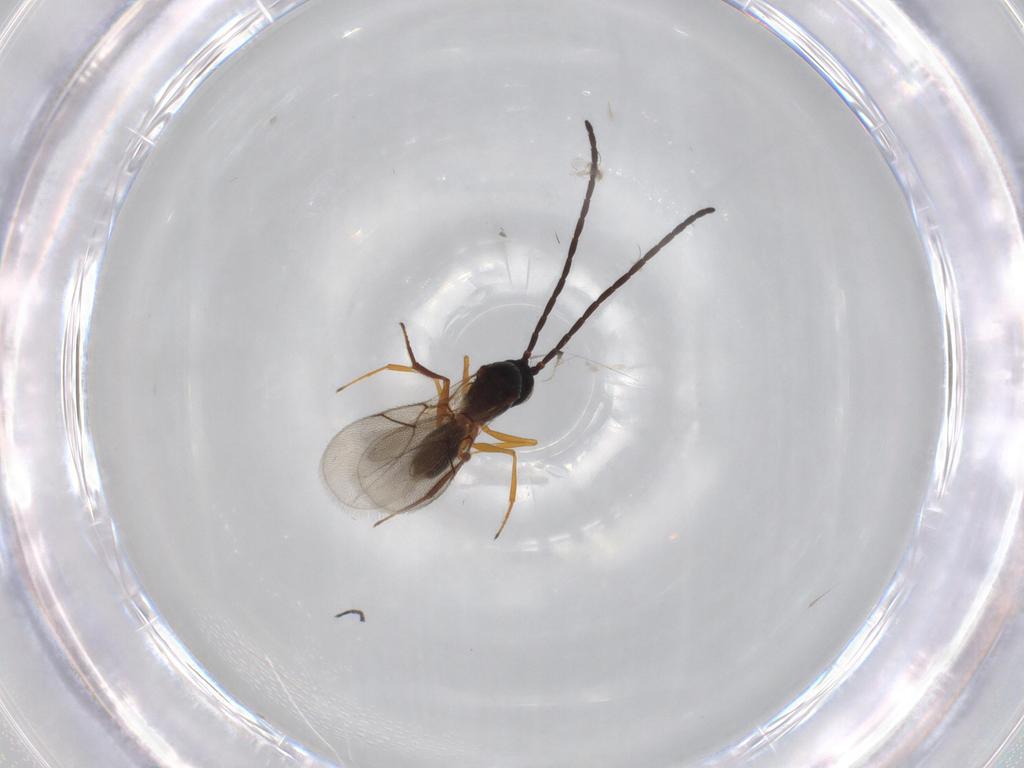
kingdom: Animalia
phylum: Arthropoda
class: Insecta
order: Hymenoptera
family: Figitidae
